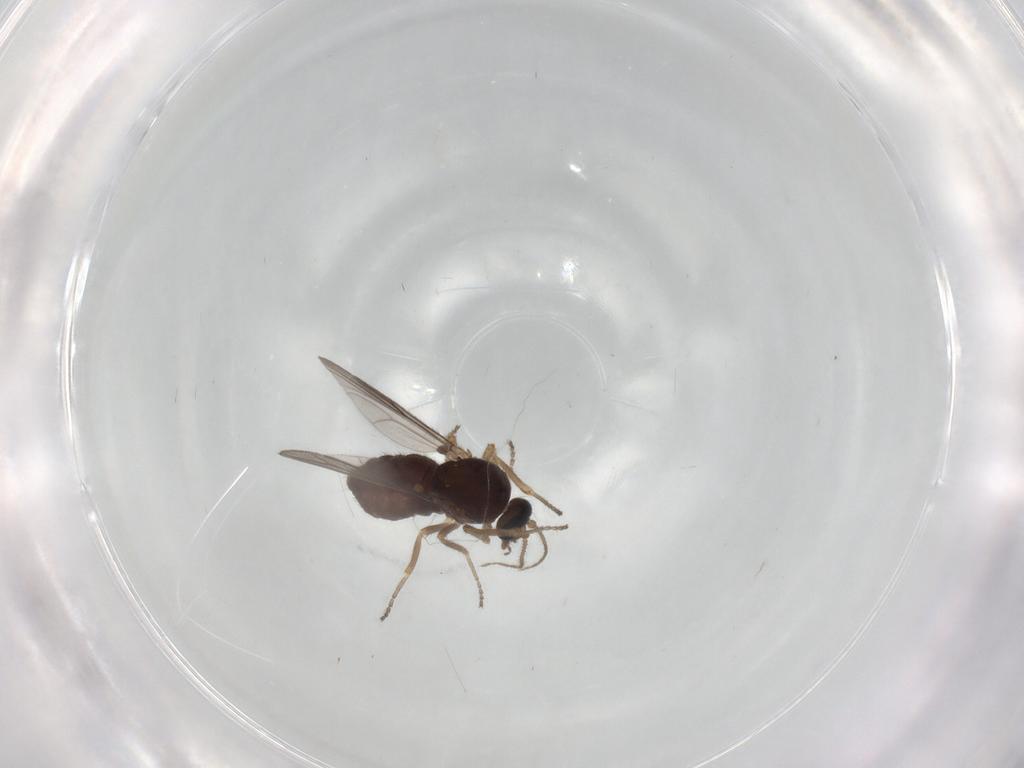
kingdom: Animalia
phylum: Arthropoda
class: Insecta
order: Diptera
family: Ceratopogonidae
